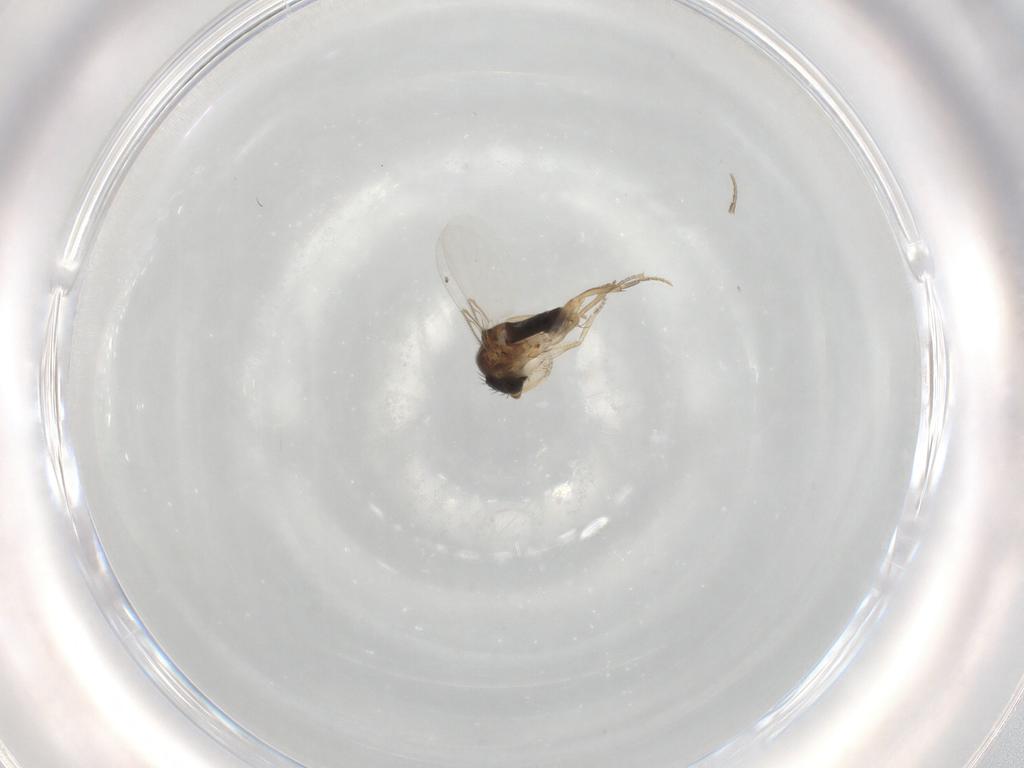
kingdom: Animalia
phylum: Arthropoda
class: Insecta
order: Diptera
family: Phoridae
